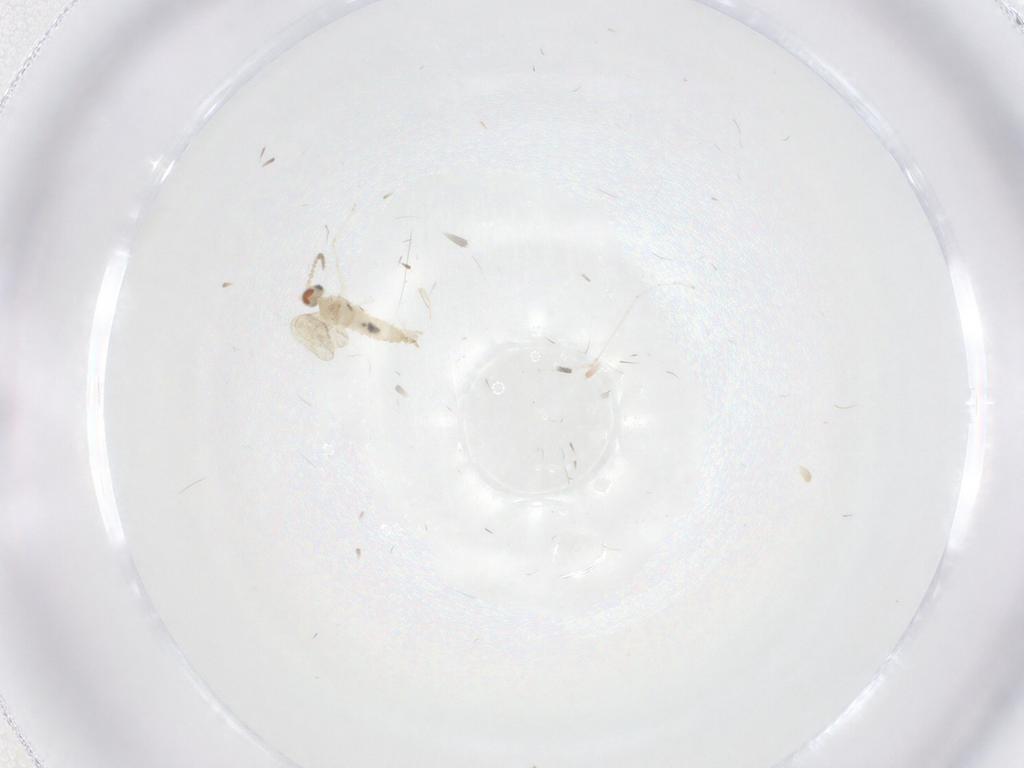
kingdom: Animalia
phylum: Arthropoda
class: Insecta
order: Diptera
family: Cecidomyiidae
